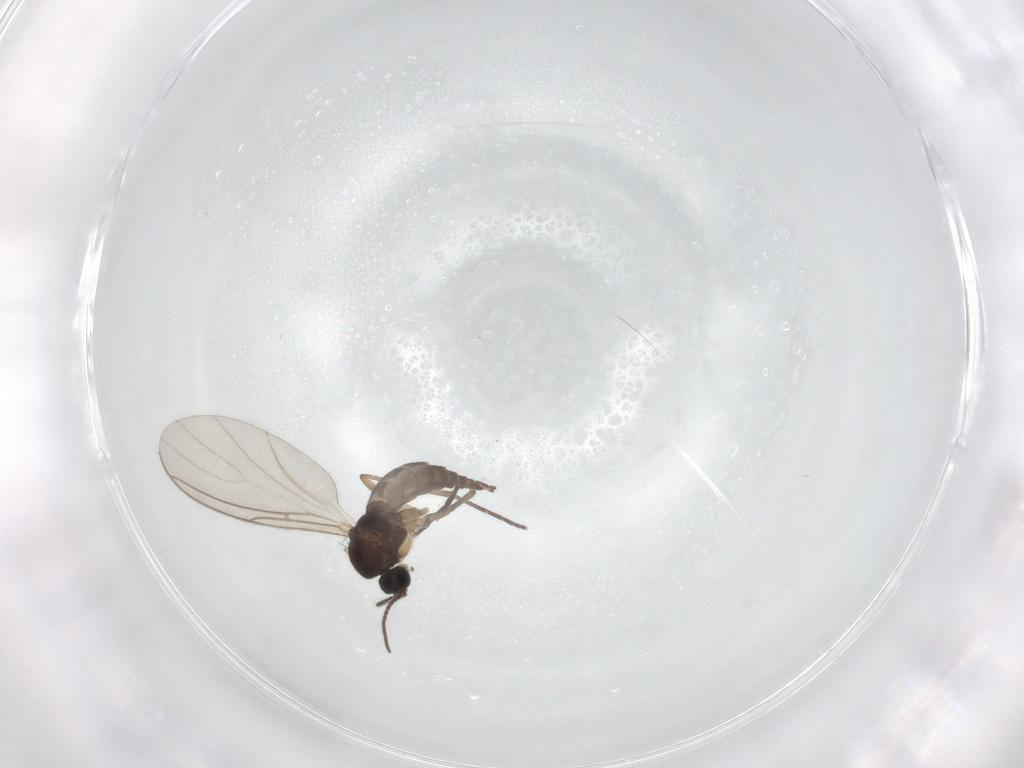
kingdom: Animalia
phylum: Arthropoda
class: Insecta
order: Diptera
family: Sciaridae
